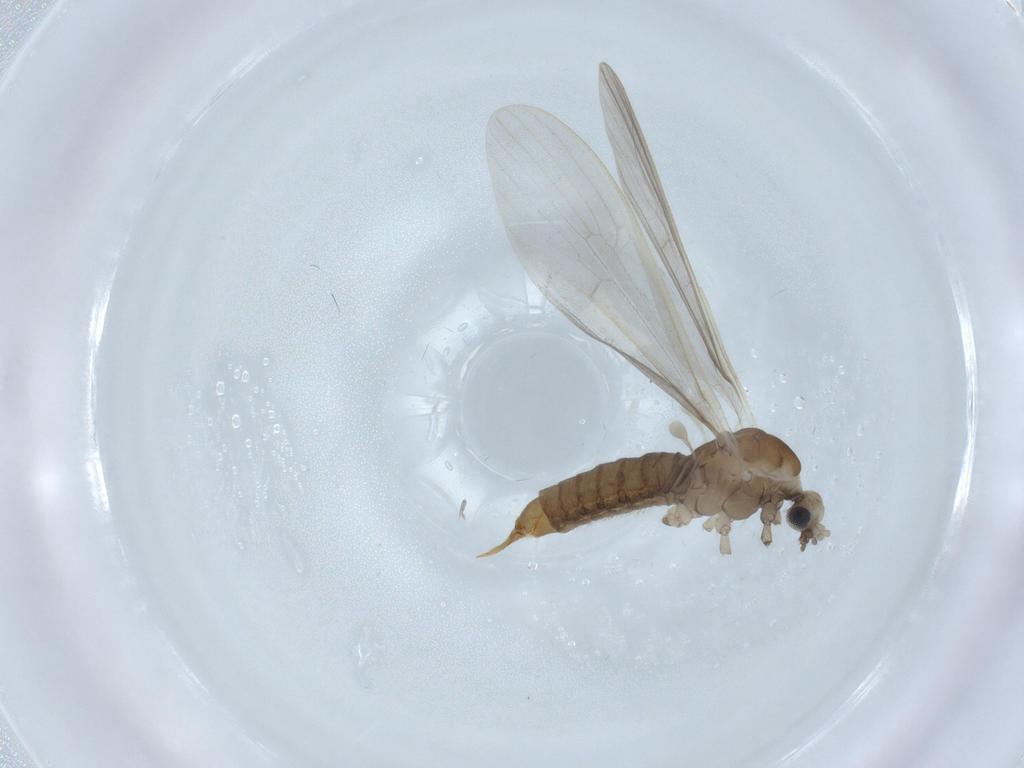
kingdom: Animalia
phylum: Arthropoda
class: Insecta
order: Diptera
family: Limoniidae
